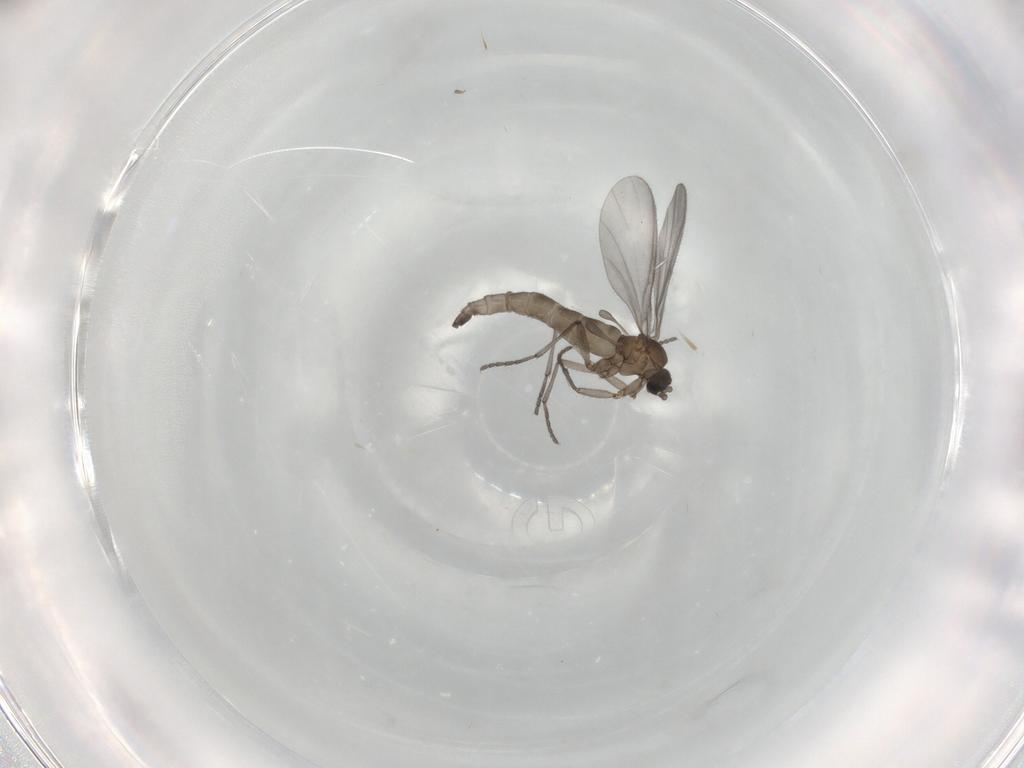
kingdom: Animalia
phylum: Arthropoda
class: Insecta
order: Diptera
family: Sciaridae
